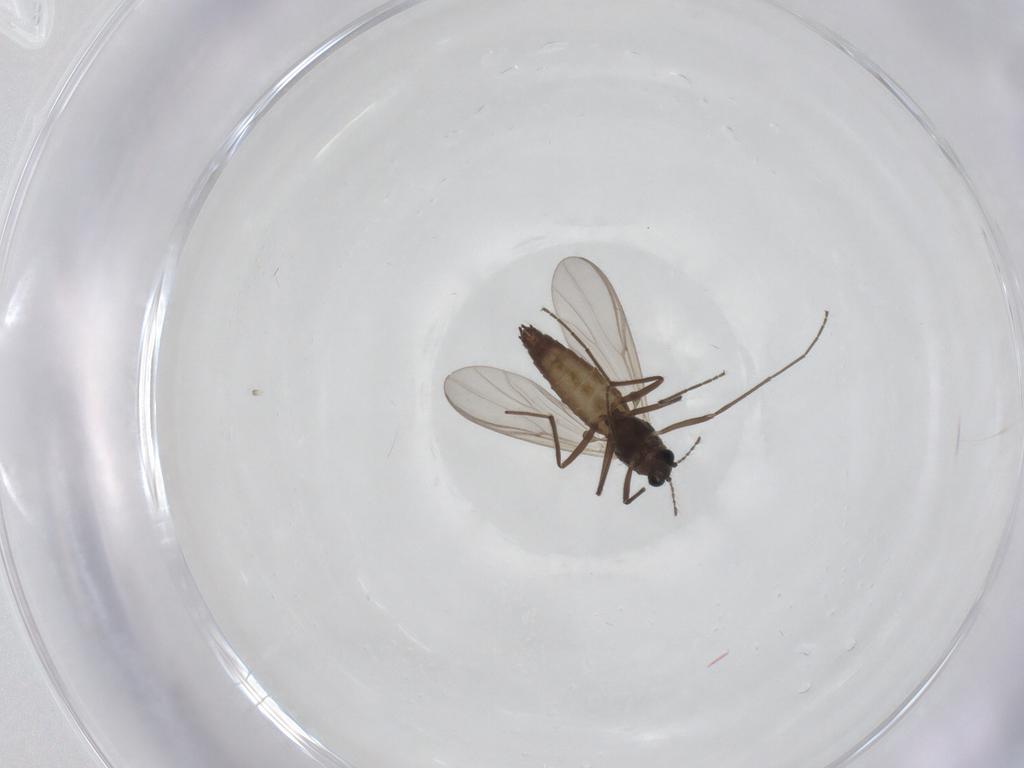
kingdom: Animalia
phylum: Arthropoda
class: Insecta
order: Diptera
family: Chironomidae
